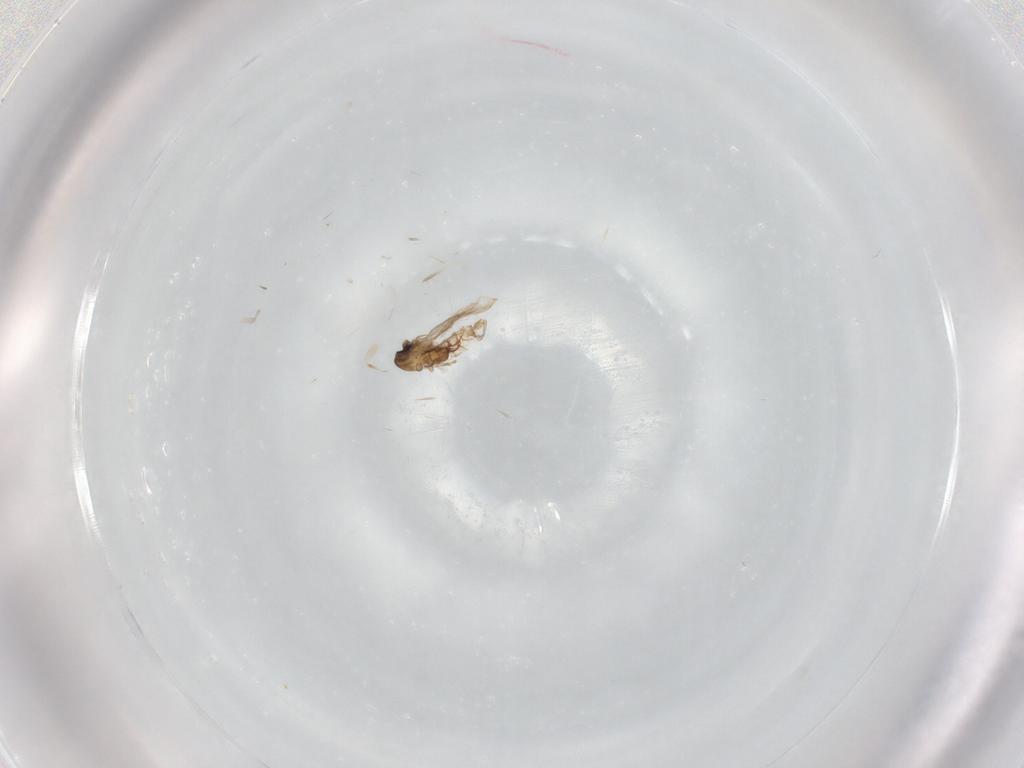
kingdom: Animalia
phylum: Arthropoda
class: Insecta
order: Diptera
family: Psychodidae
